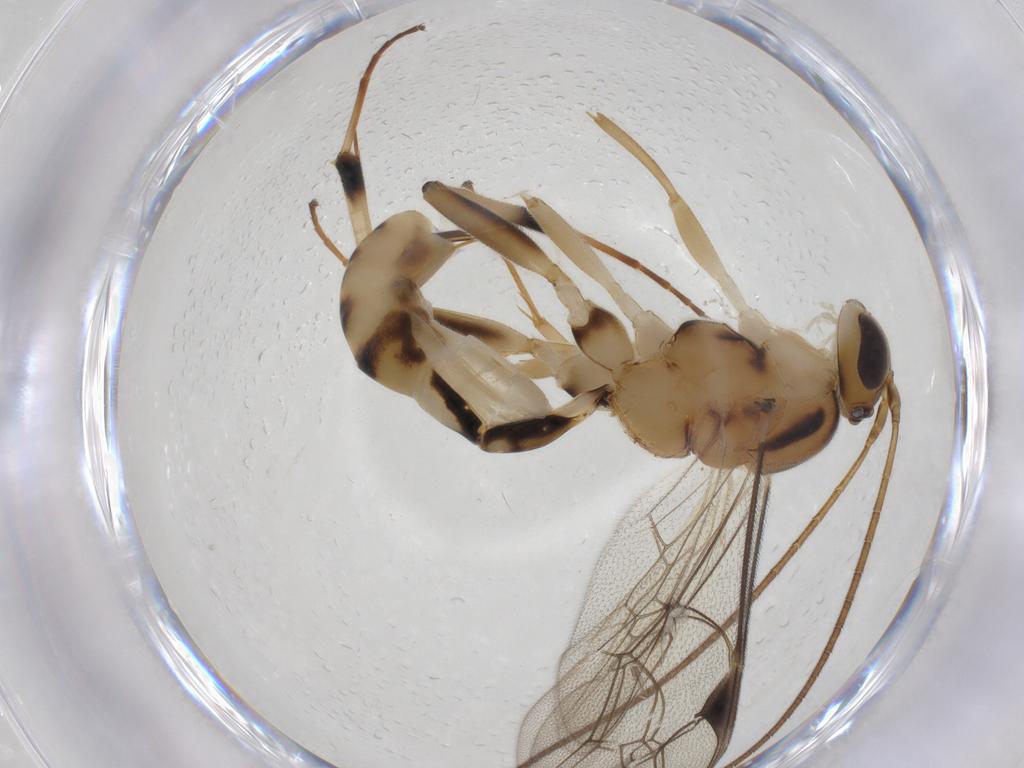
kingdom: Animalia
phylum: Arthropoda
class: Insecta
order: Hymenoptera
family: Ichneumonidae
